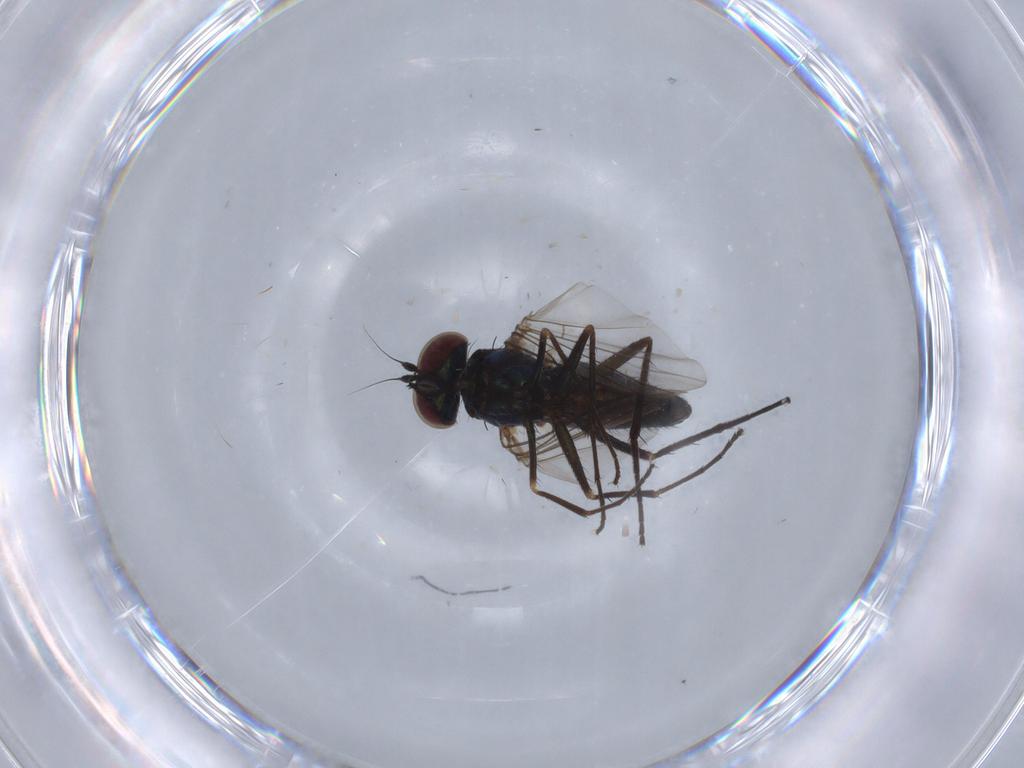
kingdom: Animalia
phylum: Arthropoda
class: Insecta
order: Diptera
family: Dolichopodidae
